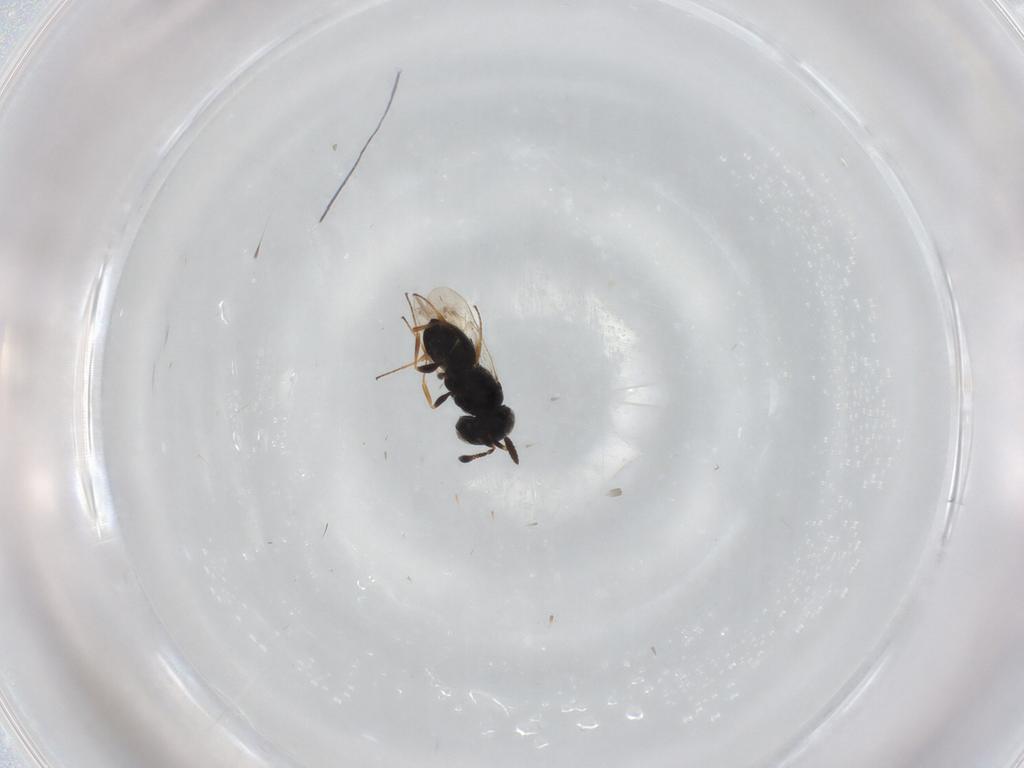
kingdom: Animalia
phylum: Arthropoda
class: Insecta
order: Hymenoptera
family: Scelionidae
